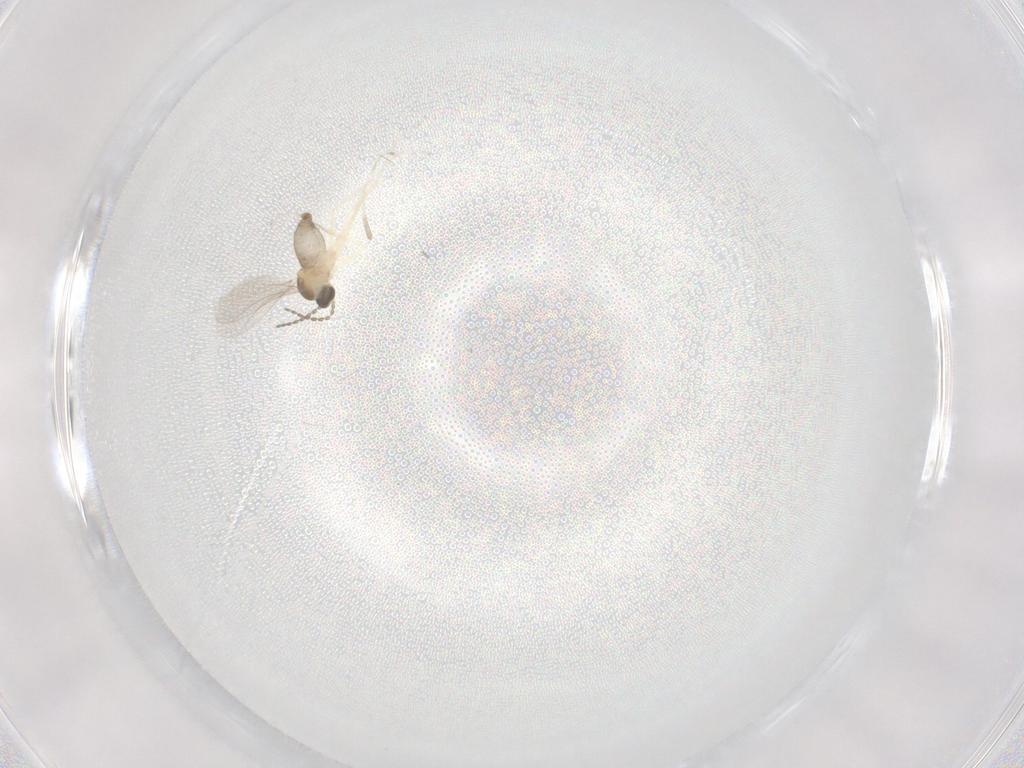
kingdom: Animalia
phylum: Arthropoda
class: Insecta
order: Diptera
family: Cecidomyiidae
